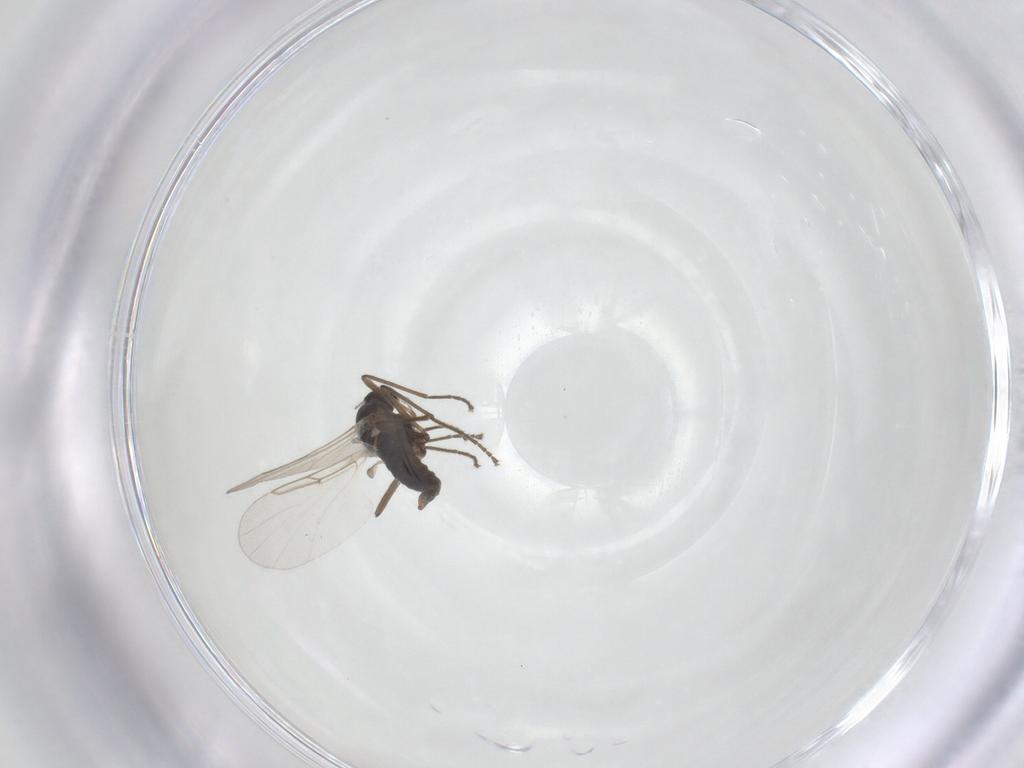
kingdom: Animalia
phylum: Arthropoda
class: Insecta
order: Diptera
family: Cecidomyiidae
